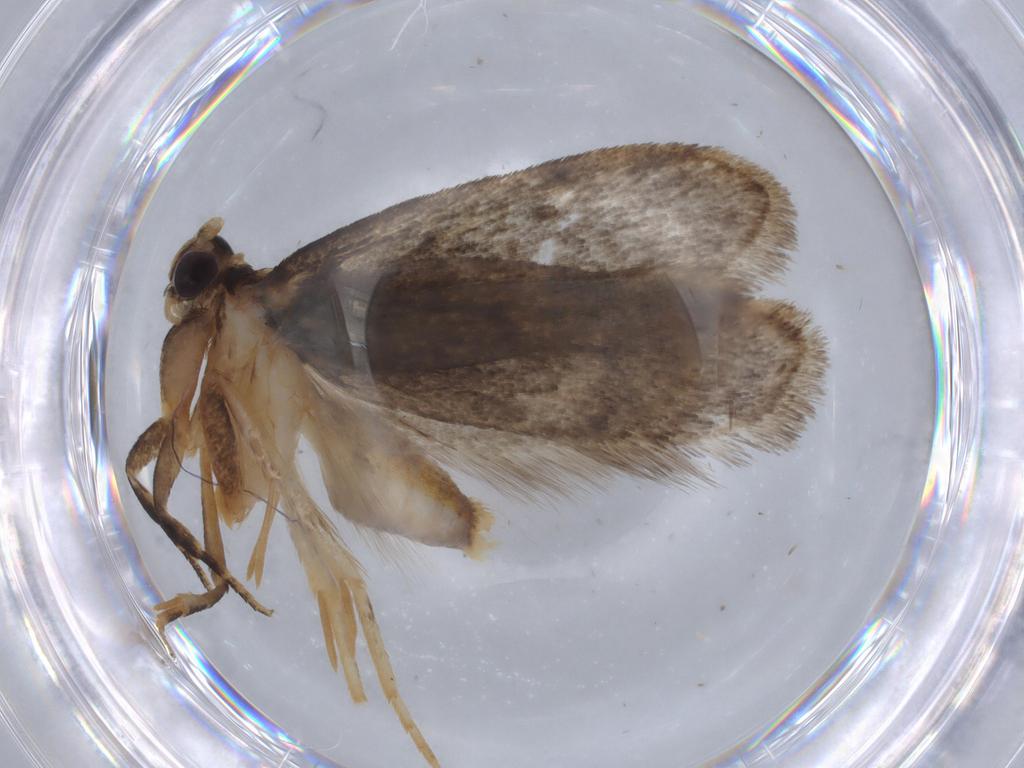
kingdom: Animalia
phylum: Arthropoda
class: Insecta
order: Lepidoptera
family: Oecophoridae
